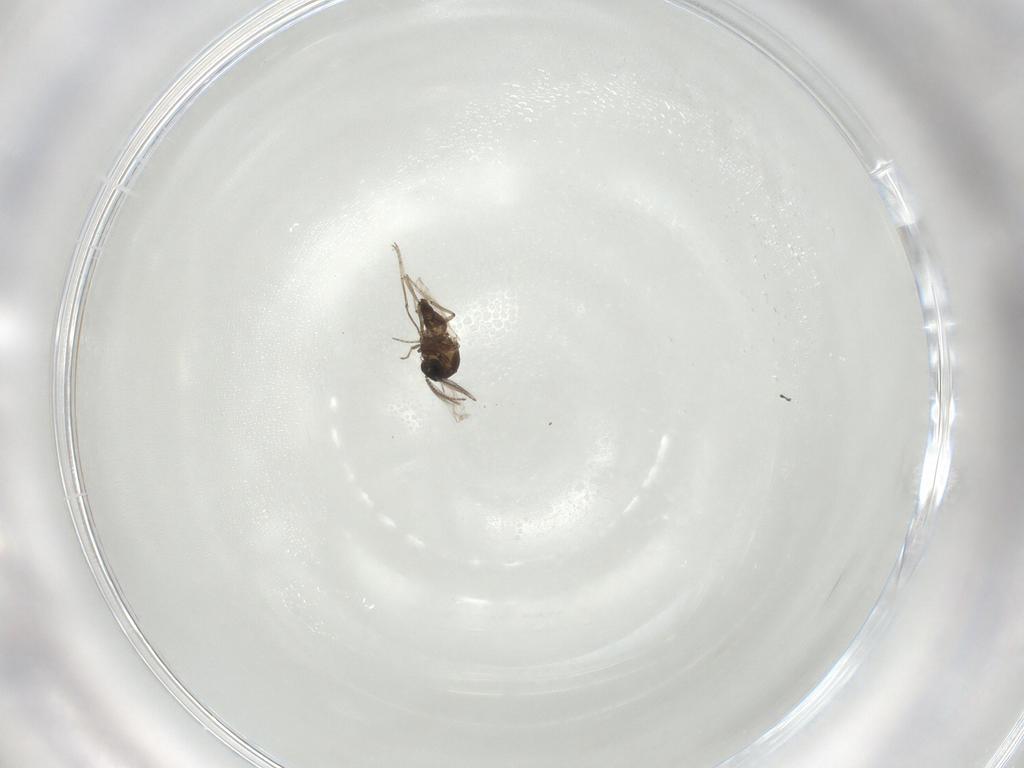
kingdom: Animalia
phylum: Arthropoda
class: Insecta
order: Diptera
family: Ceratopogonidae
